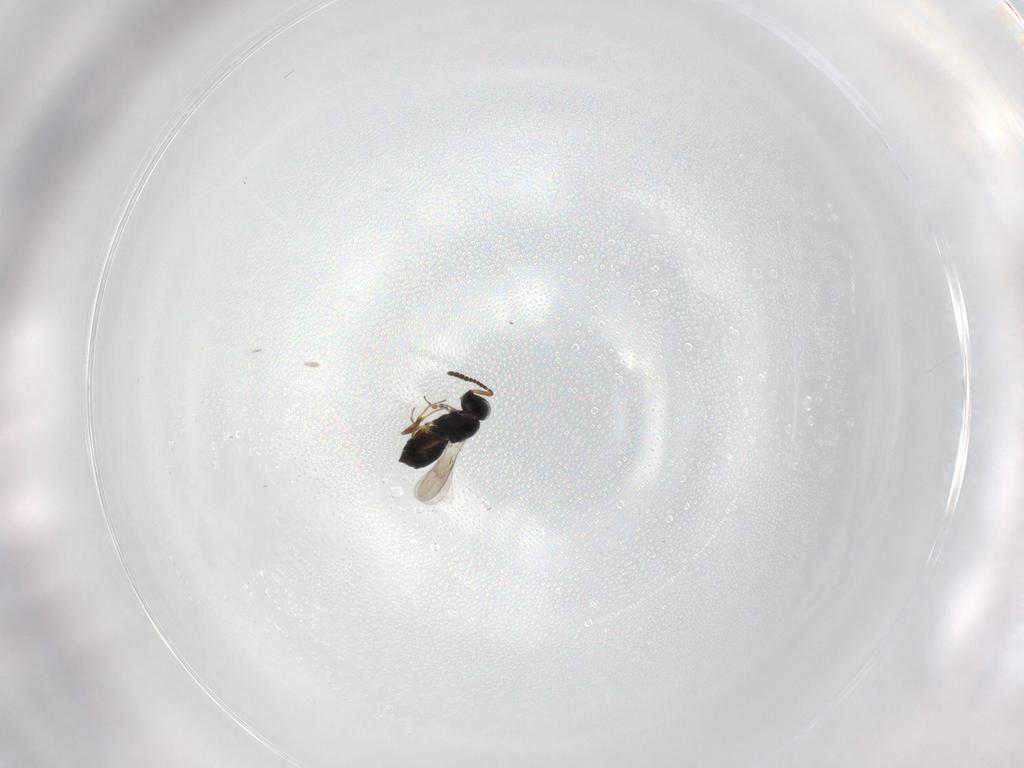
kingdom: Animalia
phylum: Arthropoda
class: Insecta
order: Hymenoptera
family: Scelionidae
